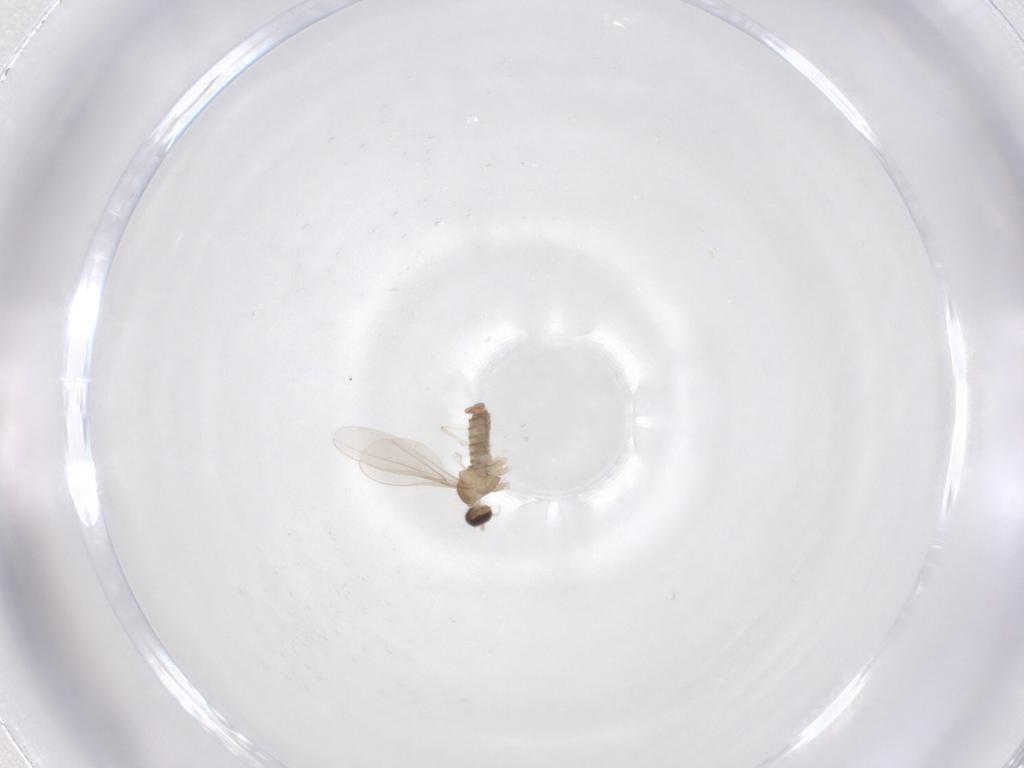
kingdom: Animalia
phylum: Arthropoda
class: Insecta
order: Diptera
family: Cecidomyiidae
